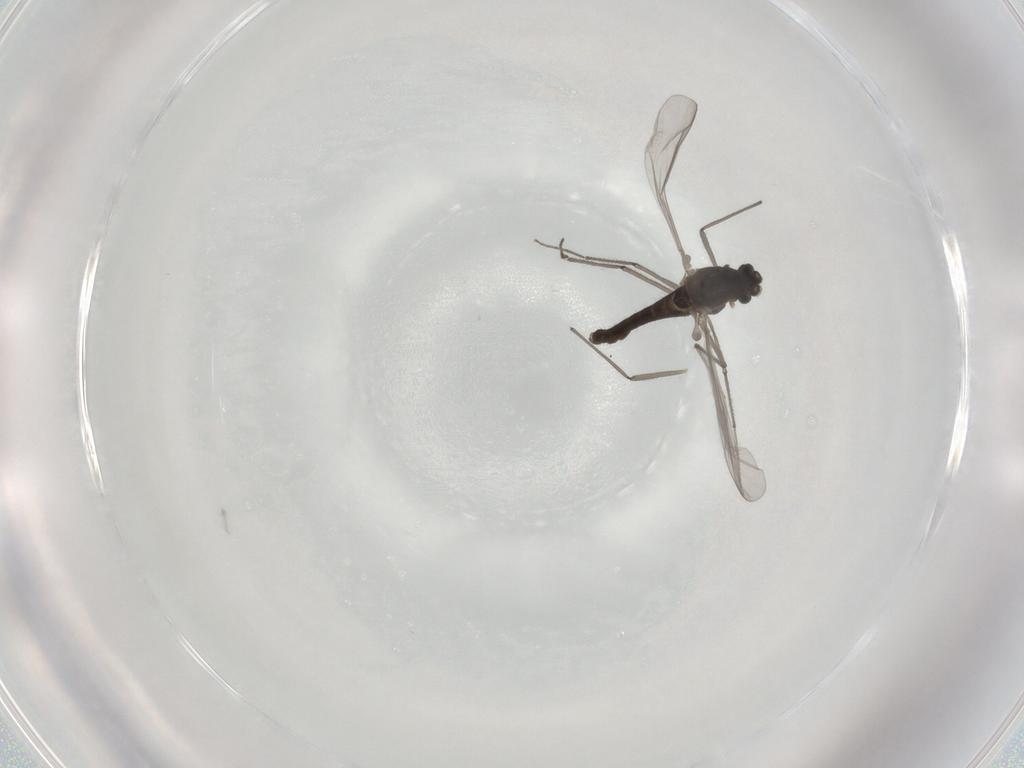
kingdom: Animalia
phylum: Arthropoda
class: Insecta
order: Diptera
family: Chironomidae
